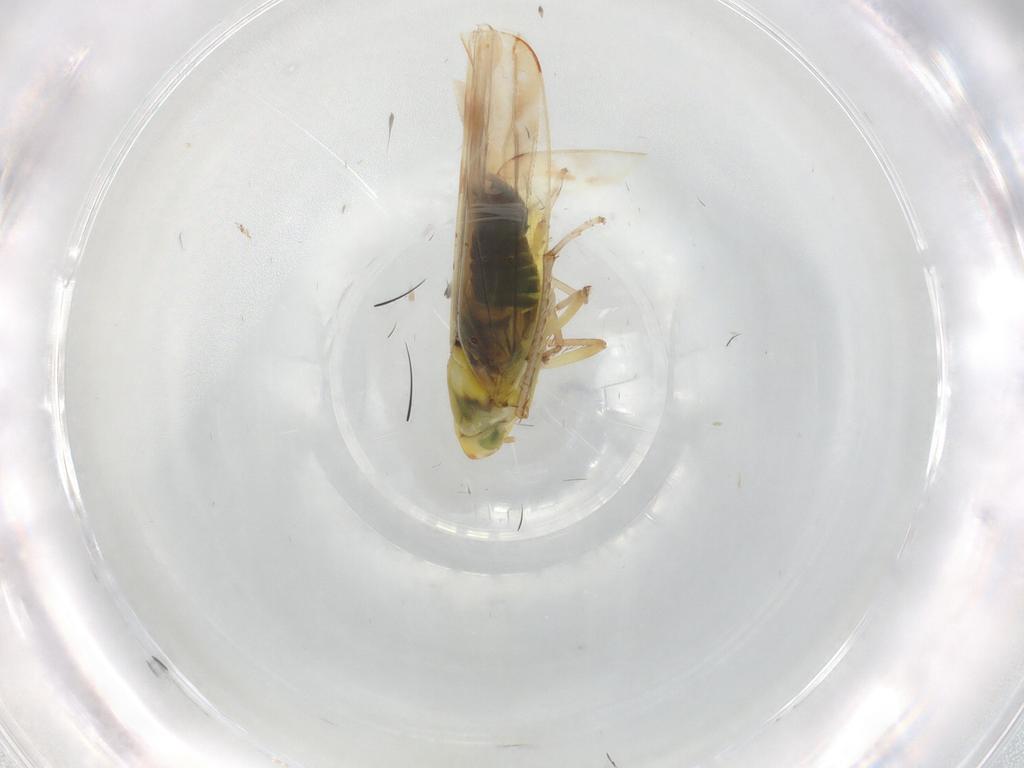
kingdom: Animalia
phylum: Arthropoda
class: Insecta
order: Hemiptera
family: Cicadellidae
